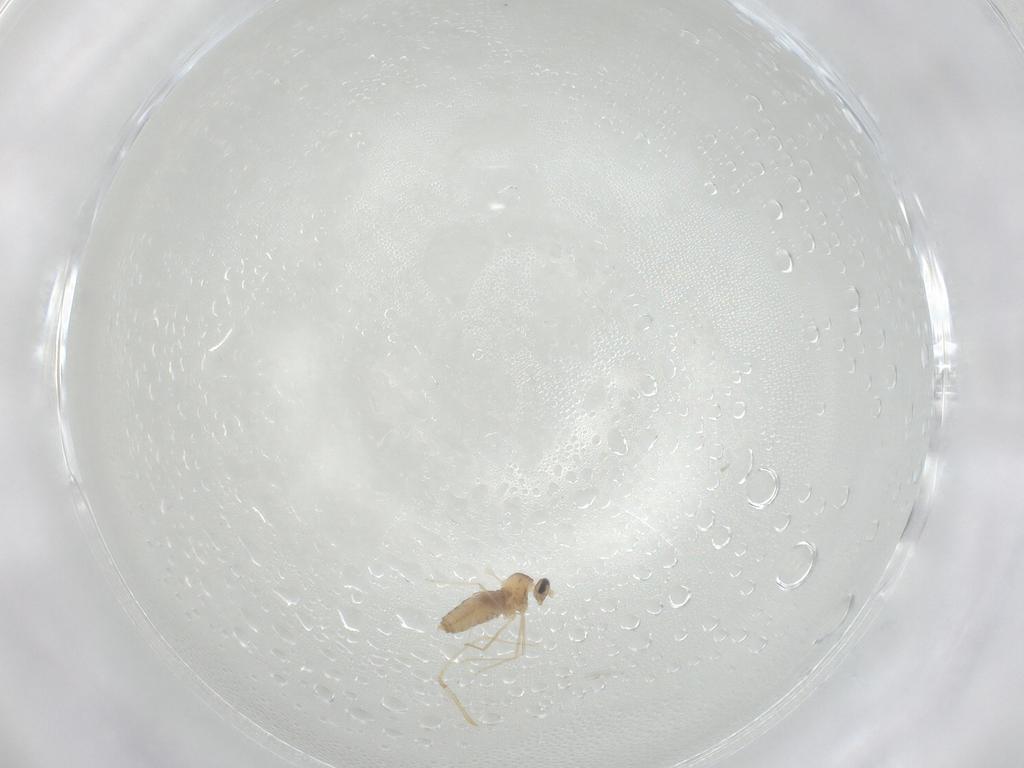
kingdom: Animalia
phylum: Arthropoda
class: Insecta
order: Diptera
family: Cecidomyiidae
